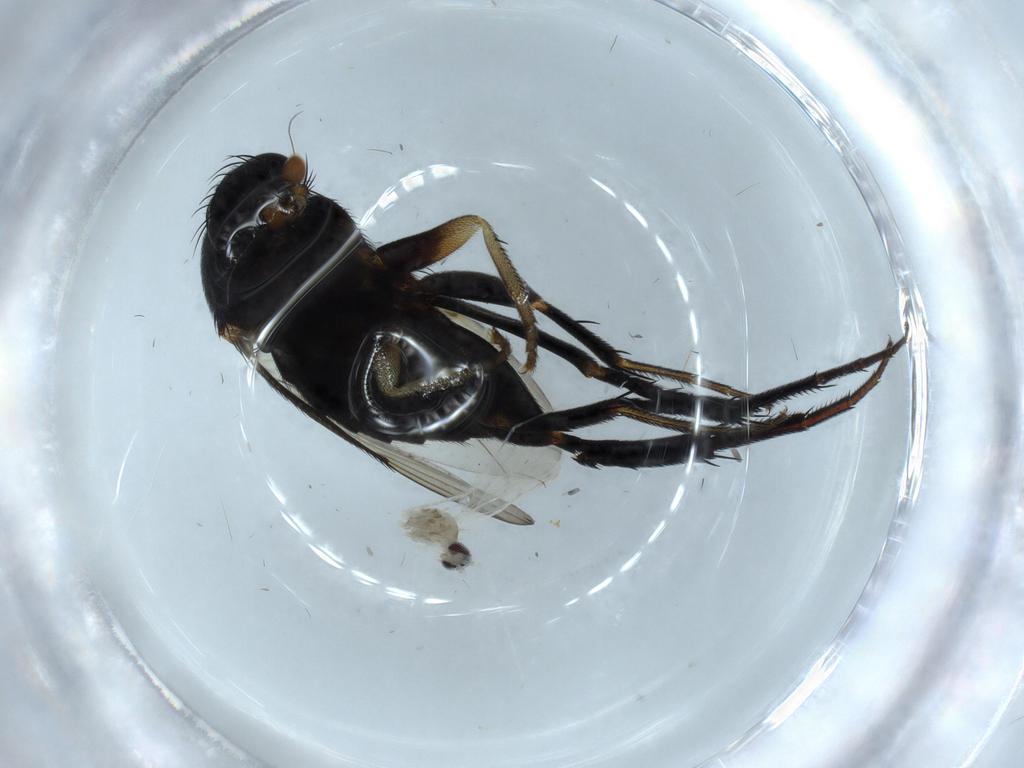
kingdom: Animalia
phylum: Arthropoda
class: Insecta
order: Diptera
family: Phoridae
